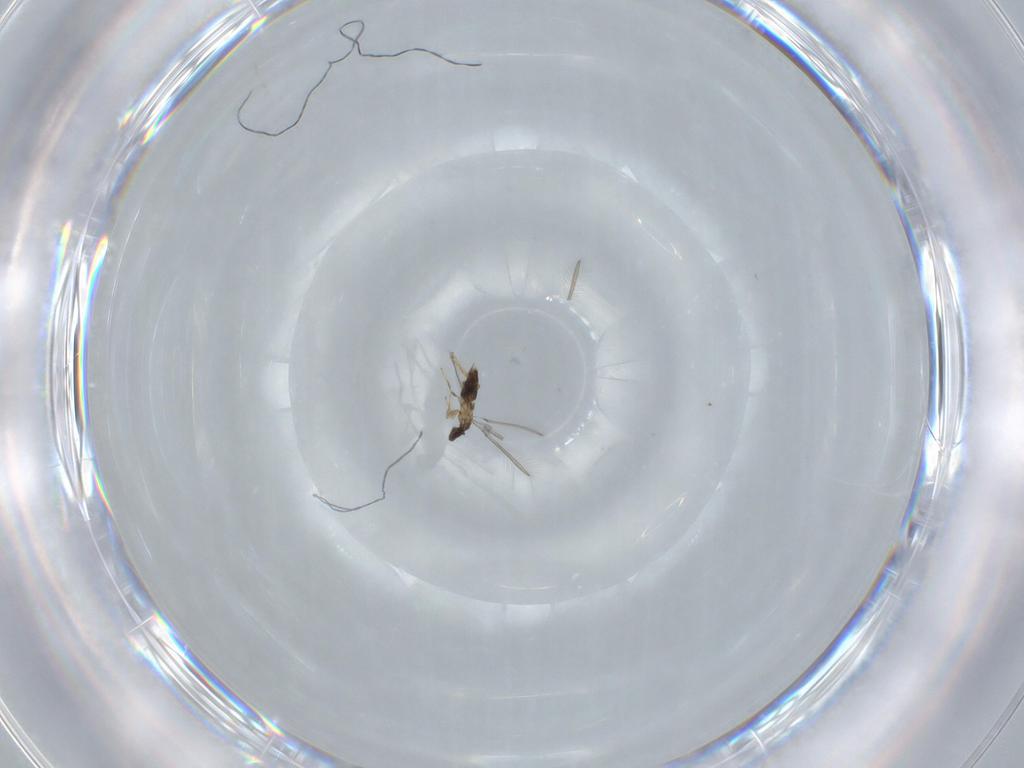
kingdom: Animalia
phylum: Arthropoda
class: Insecta
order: Hymenoptera
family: Mymaridae
